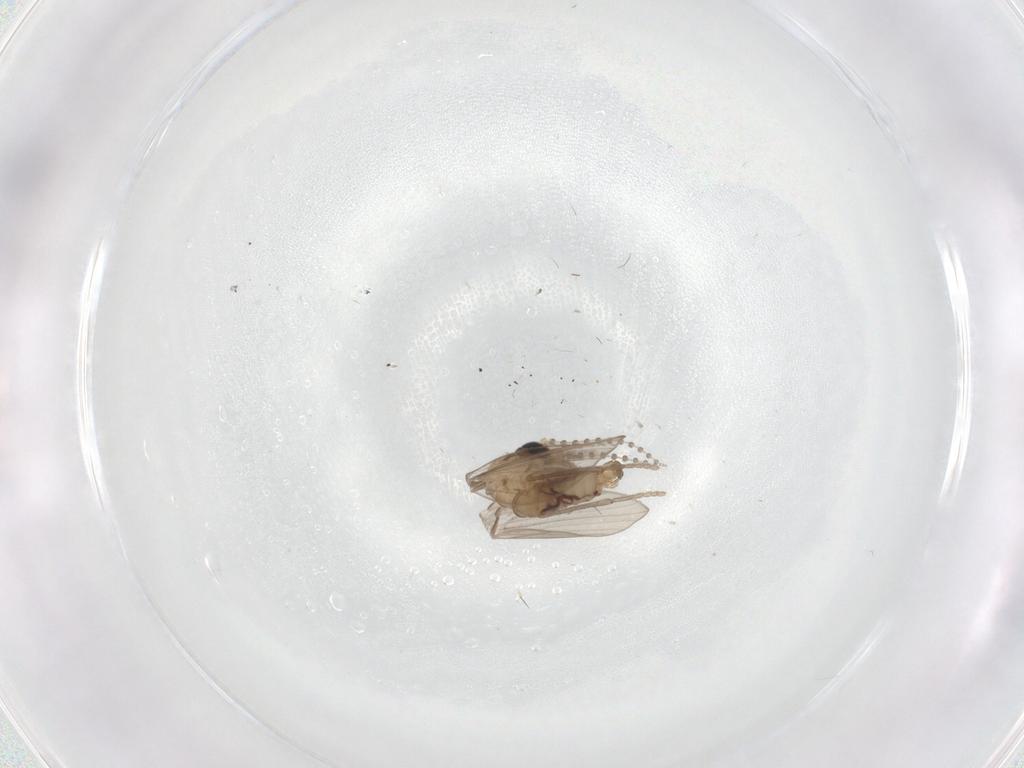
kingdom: Animalia
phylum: Arthropoda
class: Insecta
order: Diptera
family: Psychodidae
